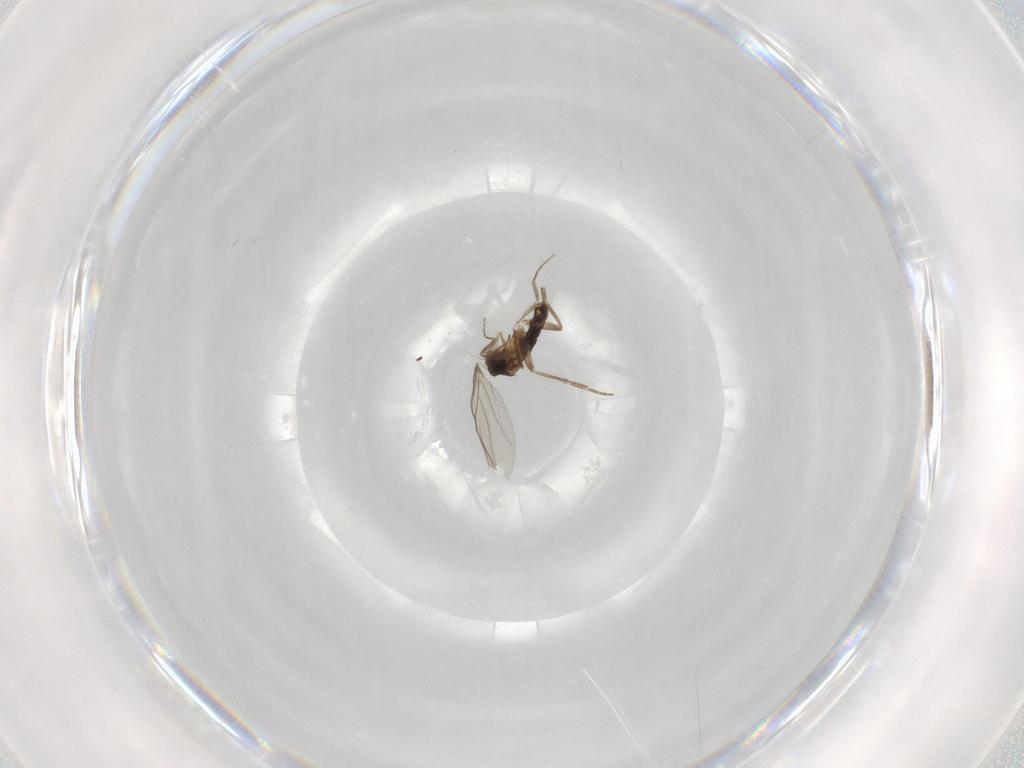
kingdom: Animalia
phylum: Arthropoda
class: Insecta
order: Diptera
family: Phoridae
